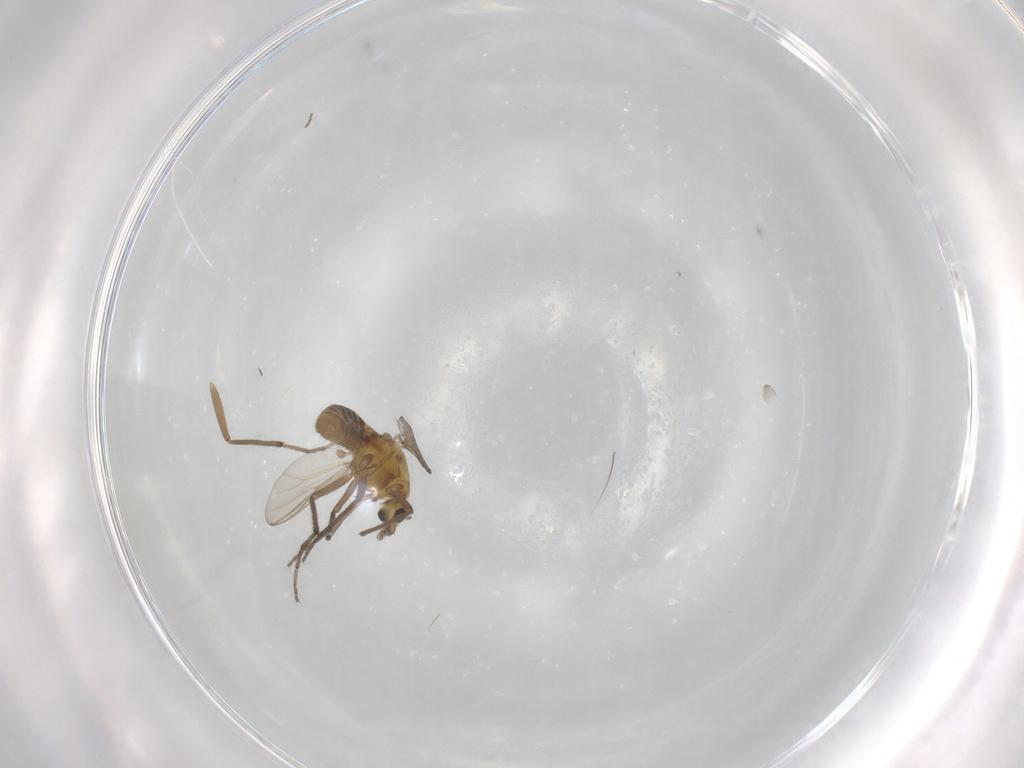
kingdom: Animalia
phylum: Arthropoda
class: Insecta
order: Diptera
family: Chironomidae
